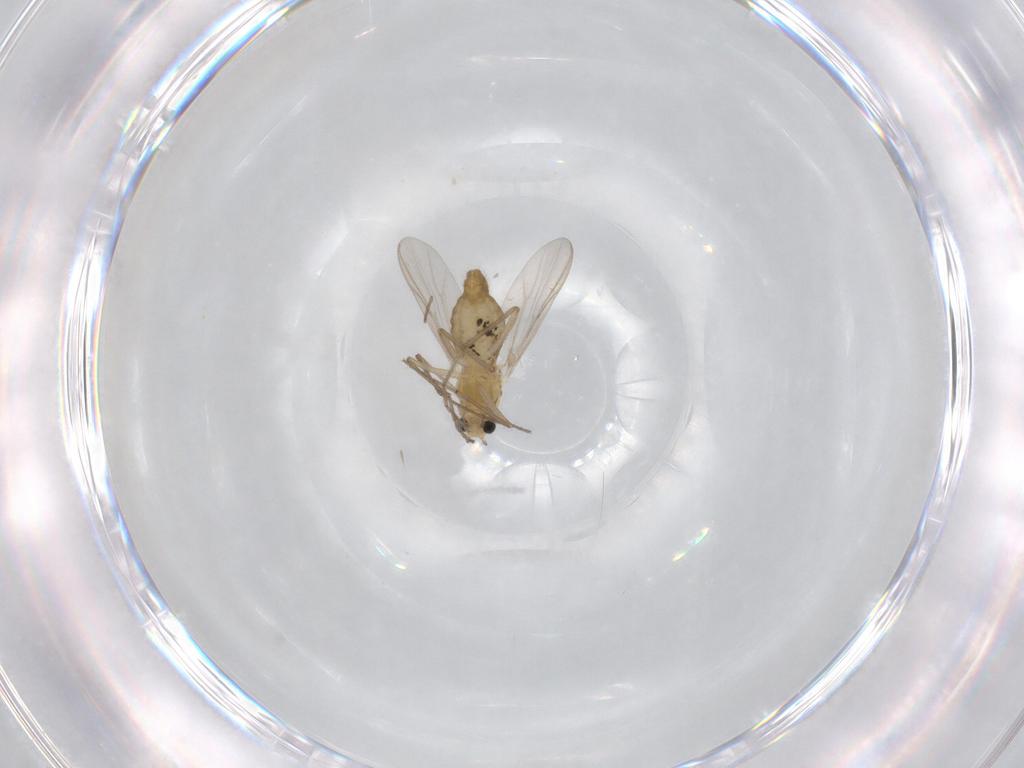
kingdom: Animalia
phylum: Arthropoda
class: Insecta
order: Diptera
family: Chironomidae
